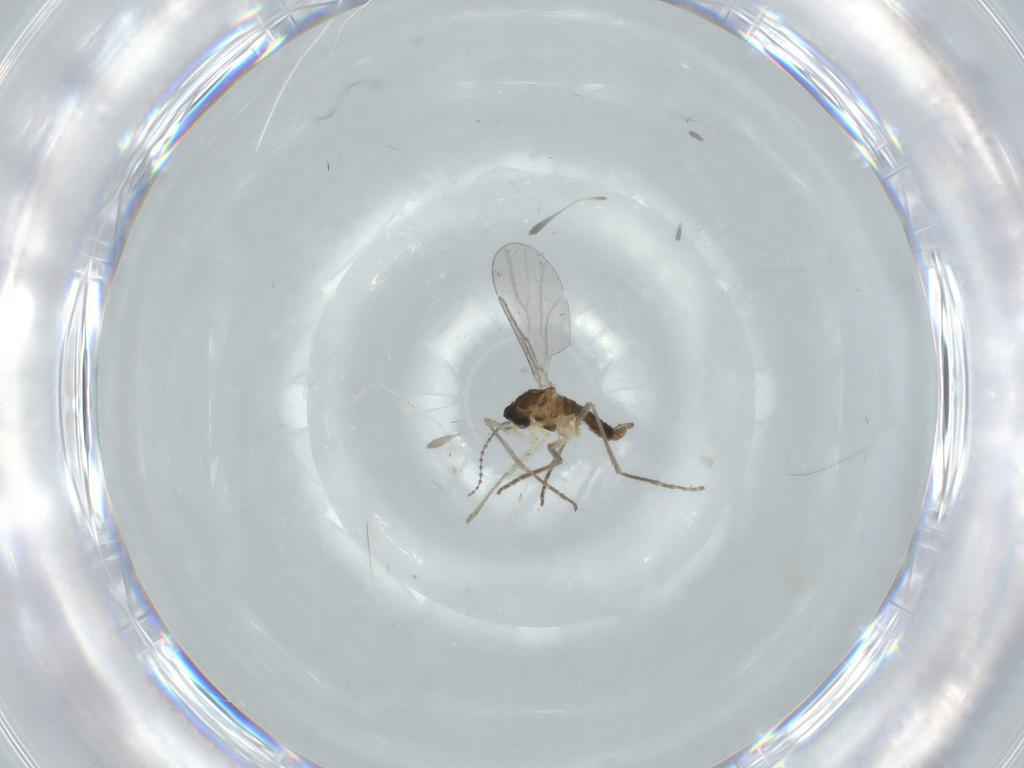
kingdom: Animalia
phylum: Arthropoda
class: Insecta
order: Diptera
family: Cecidomyiidae
